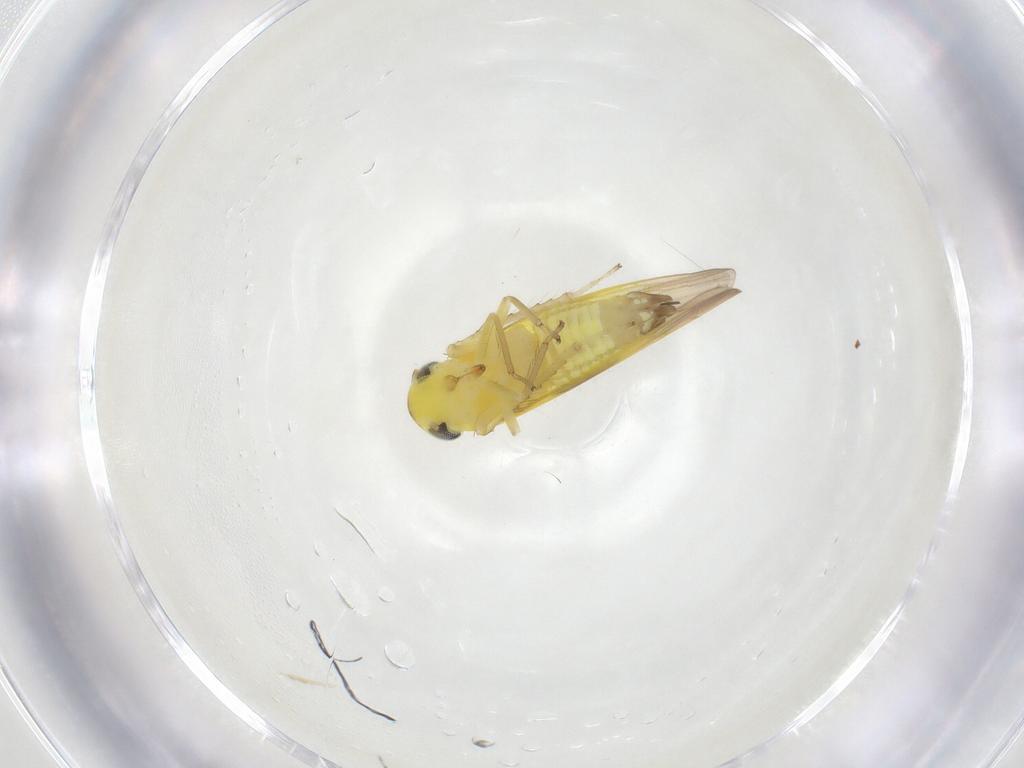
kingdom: Animalia
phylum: Arthropoda
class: Insecta
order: Hemiptera
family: Cicadellidae
